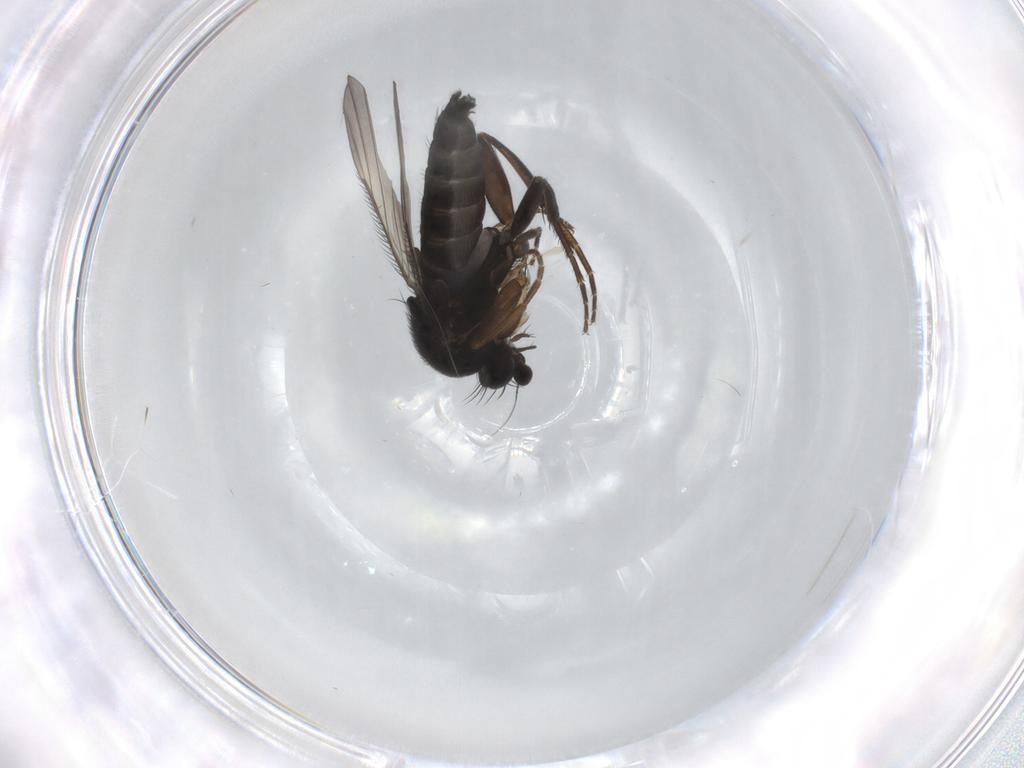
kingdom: Animalia
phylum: Arthropoda
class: Insecta
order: Diptera
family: Phoridae
